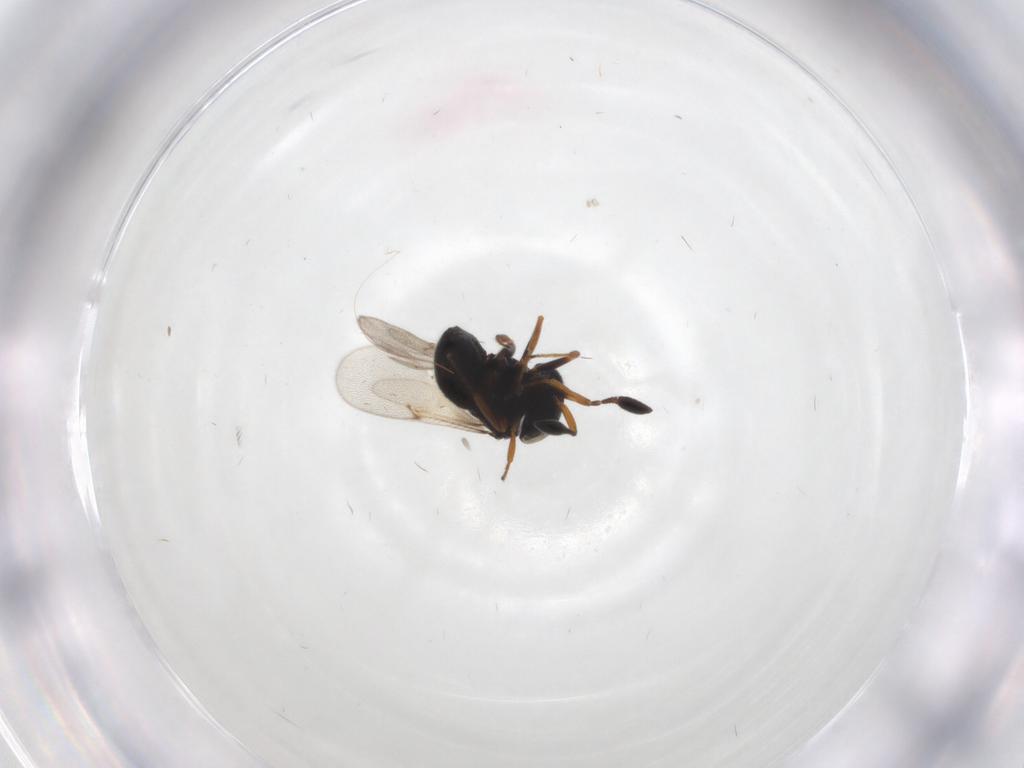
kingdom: Animalia
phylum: Arthropoda
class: Insecta
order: Hymenoptera
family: Scelionidae
